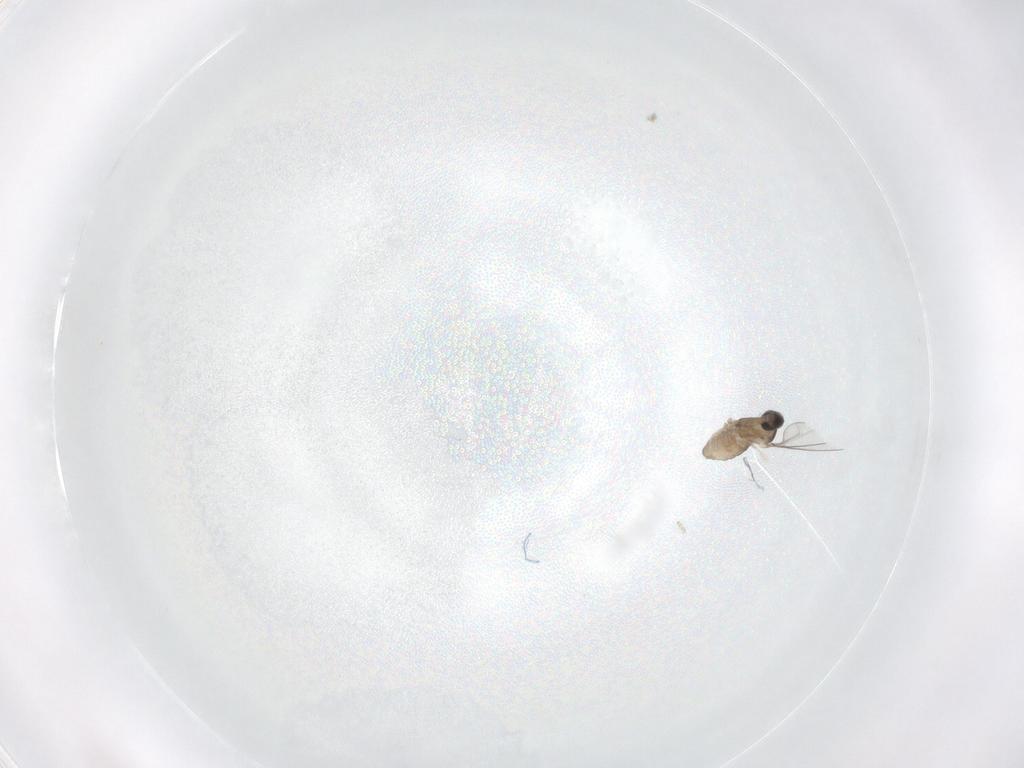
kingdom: Animalia
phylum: Arthropoda
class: Insecta
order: Diptera
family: Cecidomyiidae
